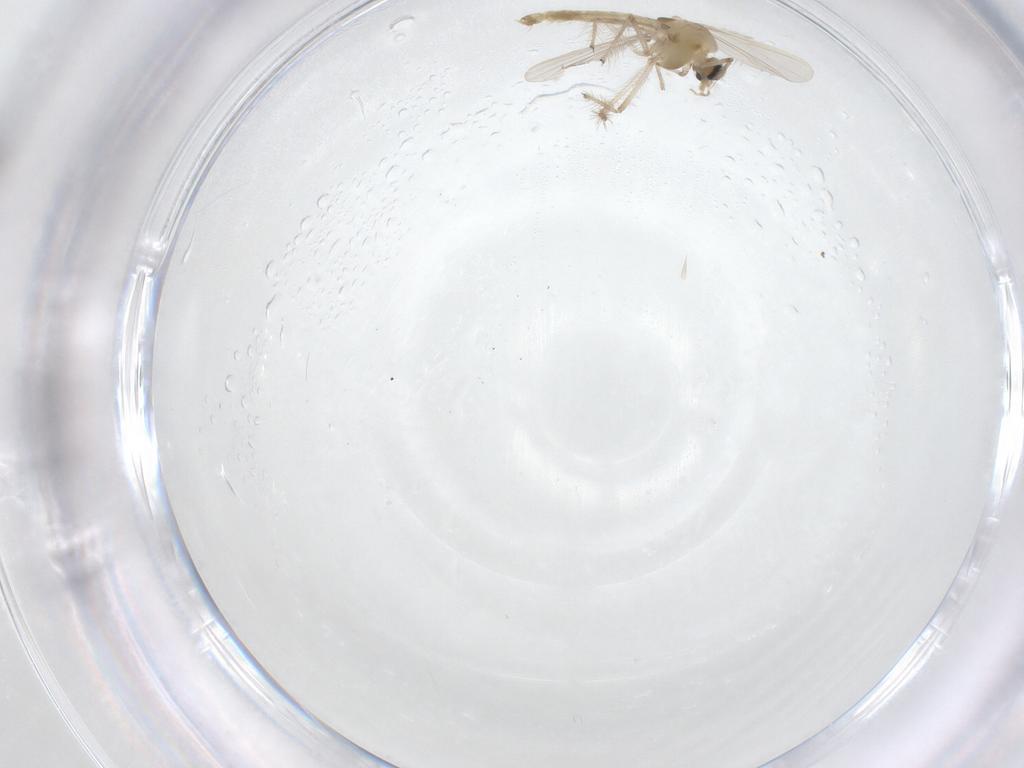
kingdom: Animalia
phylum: Arthropoda
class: Insecta
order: Diptera
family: Chironomidae
